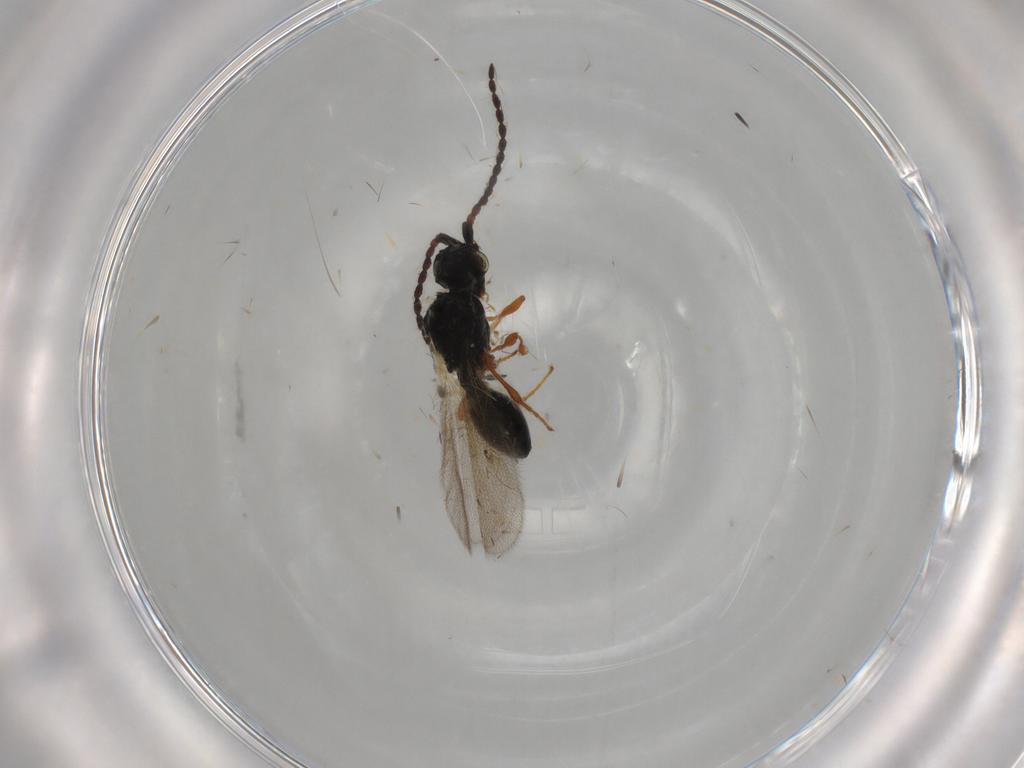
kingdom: Animalia
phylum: Arthropoda
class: Insecta
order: Hymenoptera
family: Diapriidae
